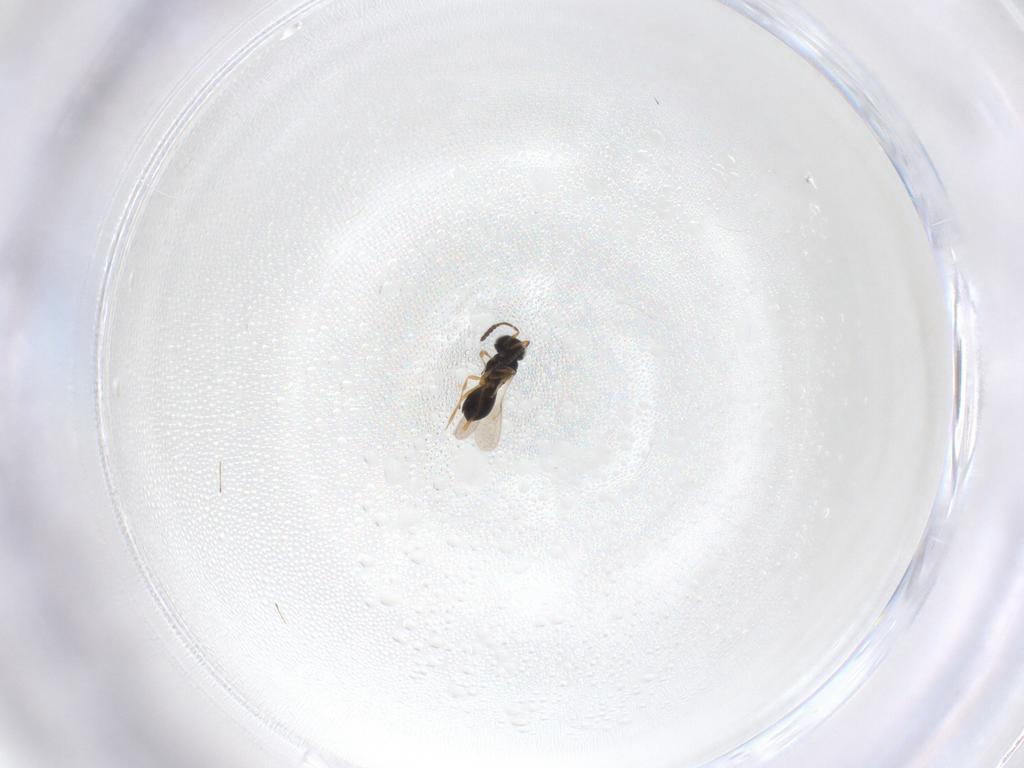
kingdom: Animalia
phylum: Arthropoda
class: Insecta
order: Hymenoptera
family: Scelionidae
